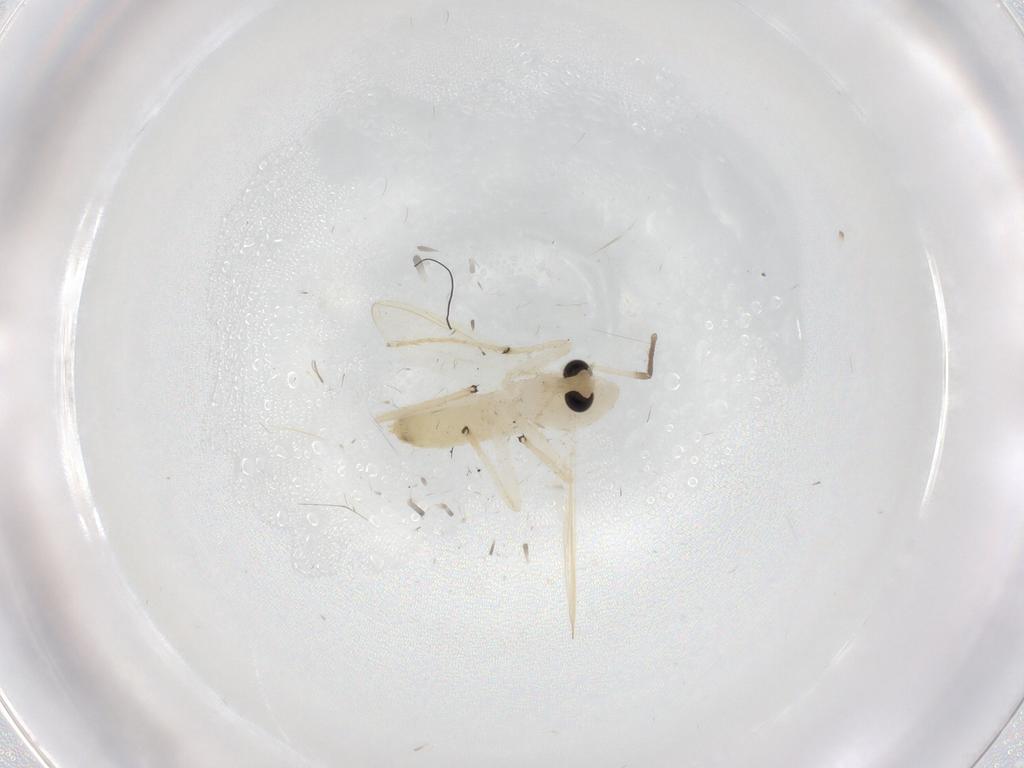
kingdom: Animalia
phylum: Arthropoda
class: Insecta
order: Diptera
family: Chironomidae
